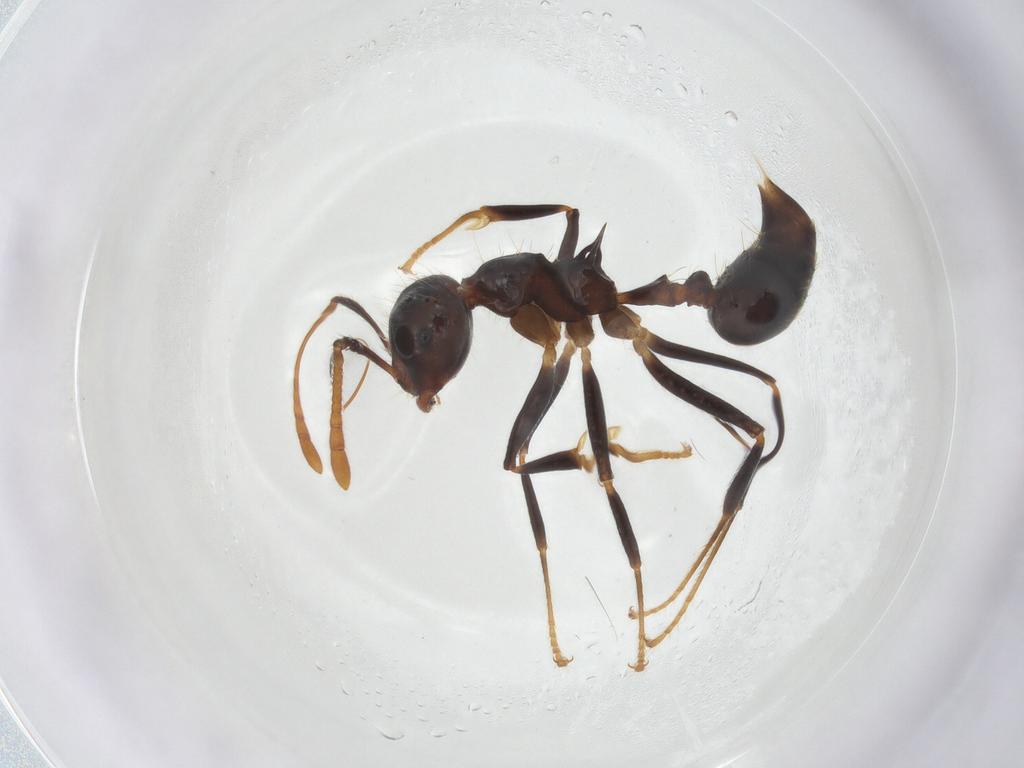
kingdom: Animalia
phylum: Arthropoda
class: Insecta
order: Hymenoptera
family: Formicidae
